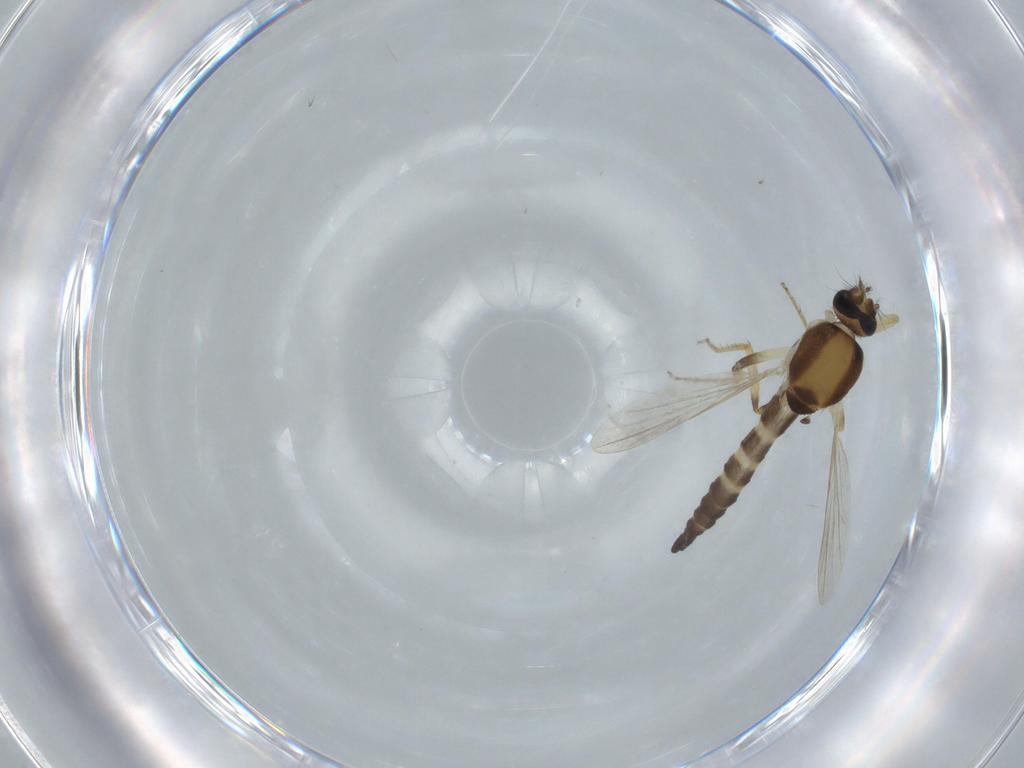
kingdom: Animalia
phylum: Arthropoda
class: Insecta
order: Diptera
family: Ceratopogonidae
